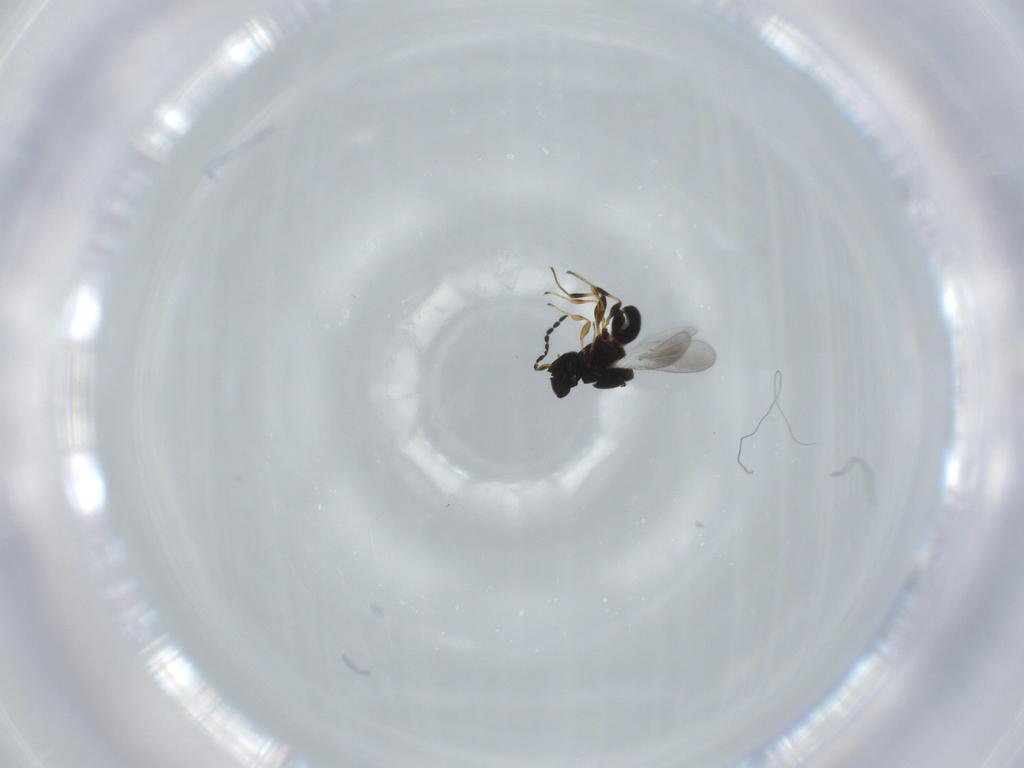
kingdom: Animalia
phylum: Arthropoda
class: Insecta
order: Hymenoptera
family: Platygastridae
